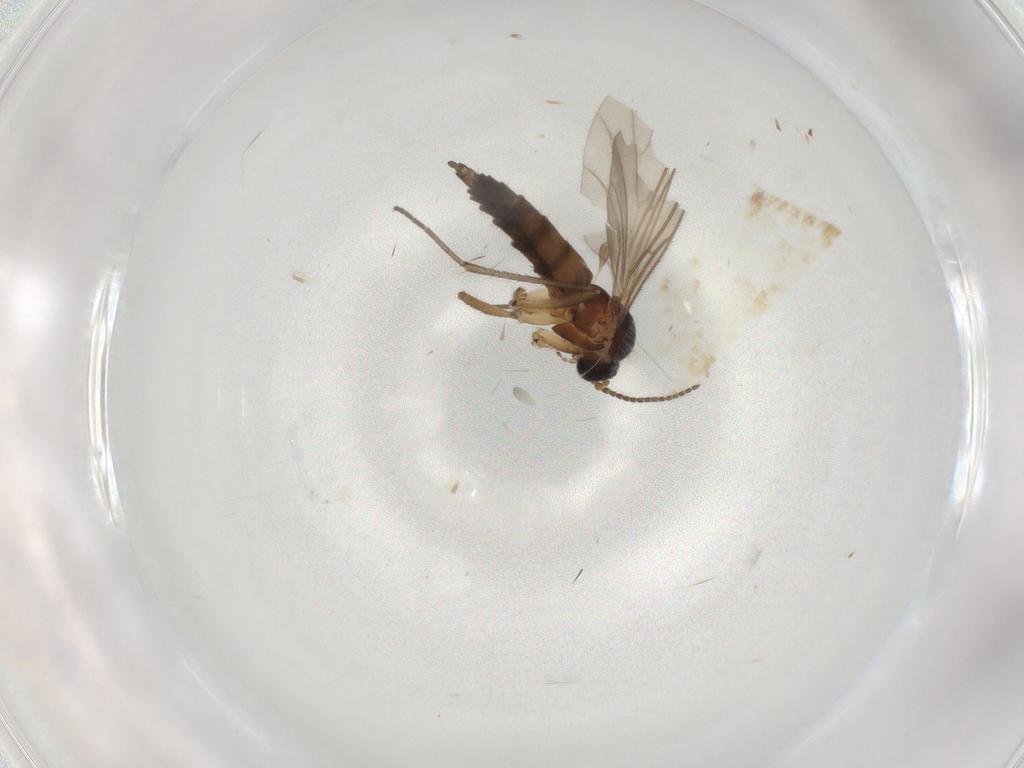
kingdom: Animalia
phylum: Arthropoda
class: Insecta
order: Diptera
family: Sciaridae
